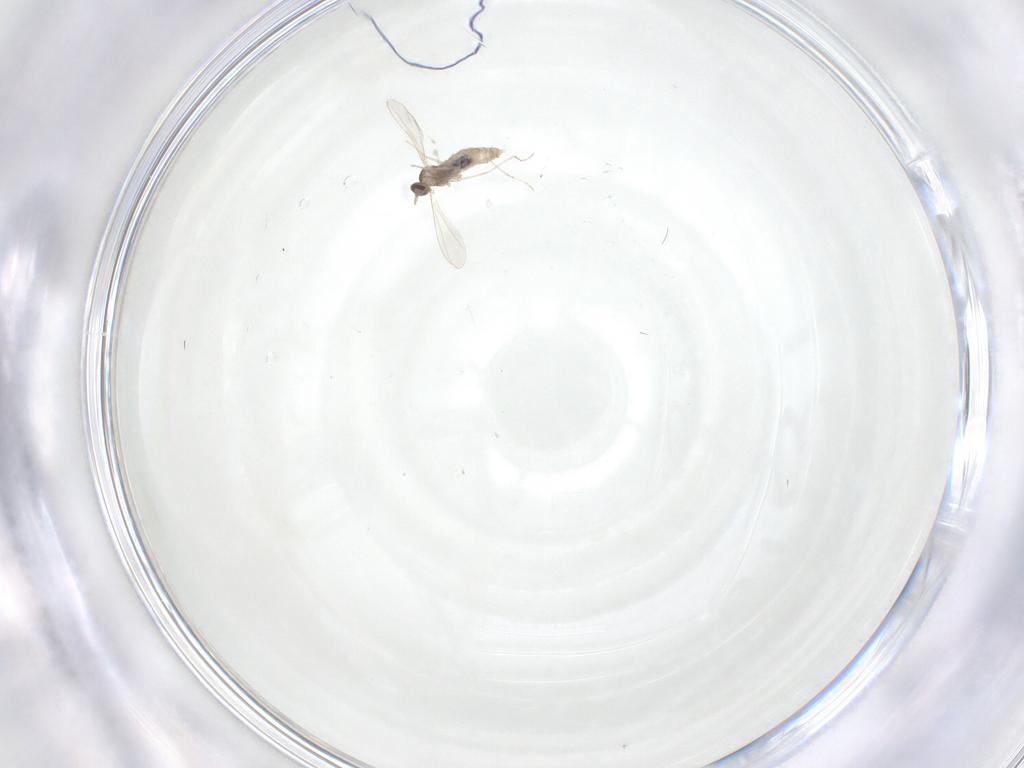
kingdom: Animalia
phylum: Arthropoda
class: Insecta
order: Diptera
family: Cecidomyiidae
